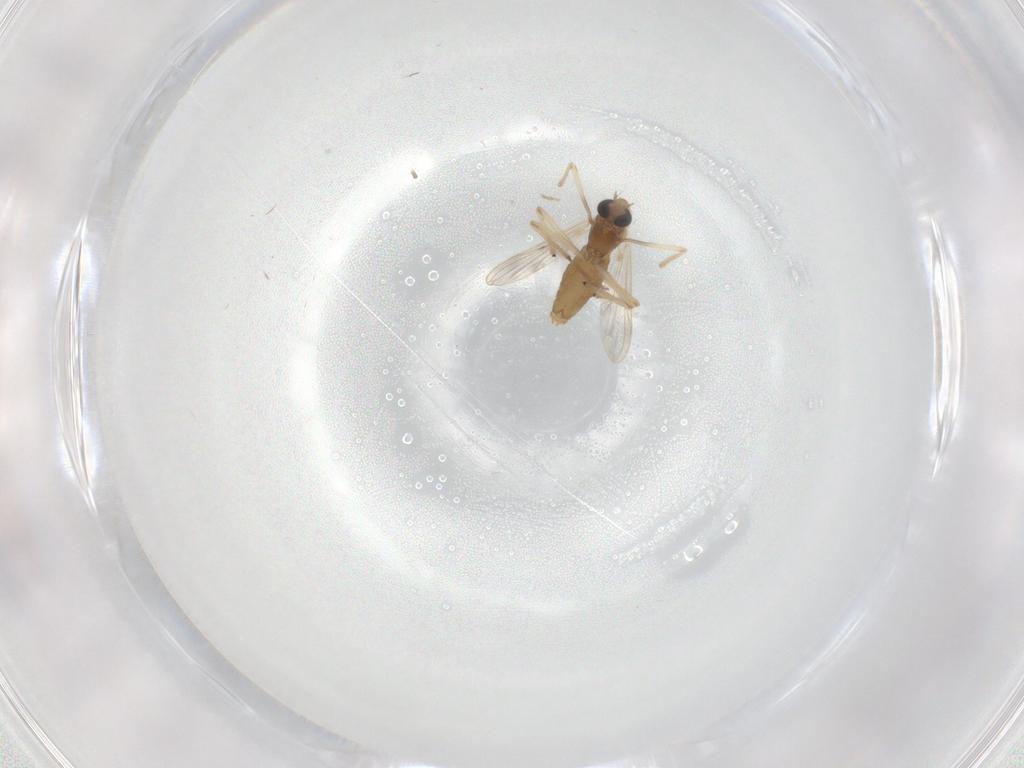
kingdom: Animalia
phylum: Arthropoda
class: Insecta
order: Diptera
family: Chironomidae
